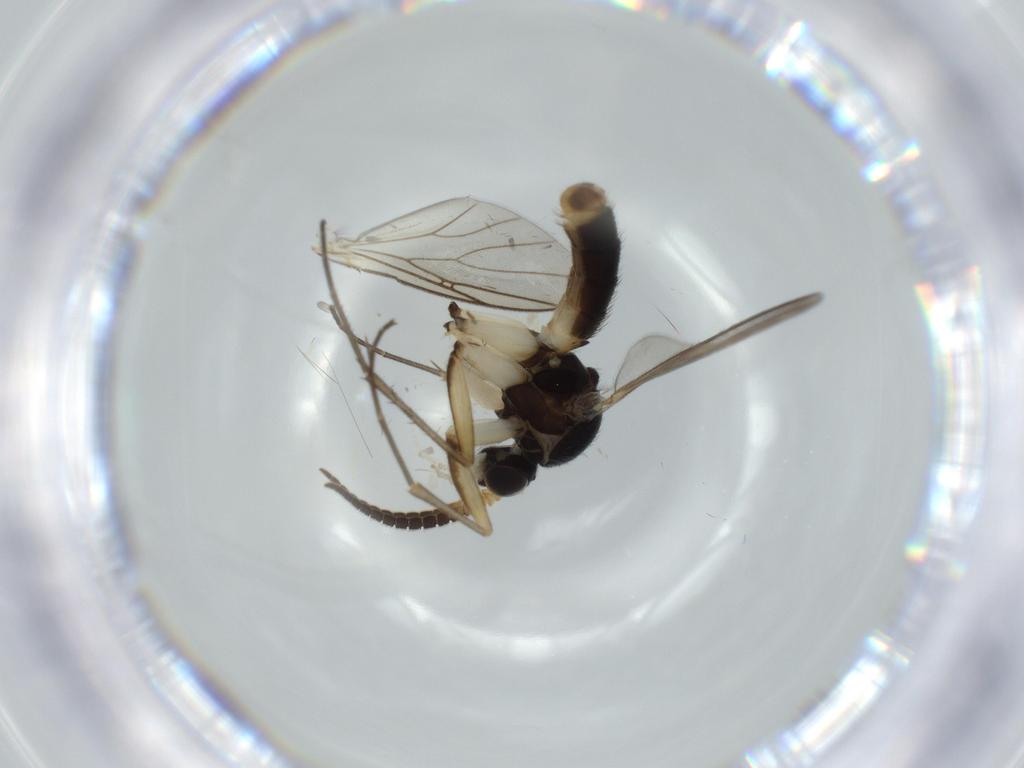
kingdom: Animalia
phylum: Arthropoda
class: Insecta
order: Diptera
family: Mycetophilidae
